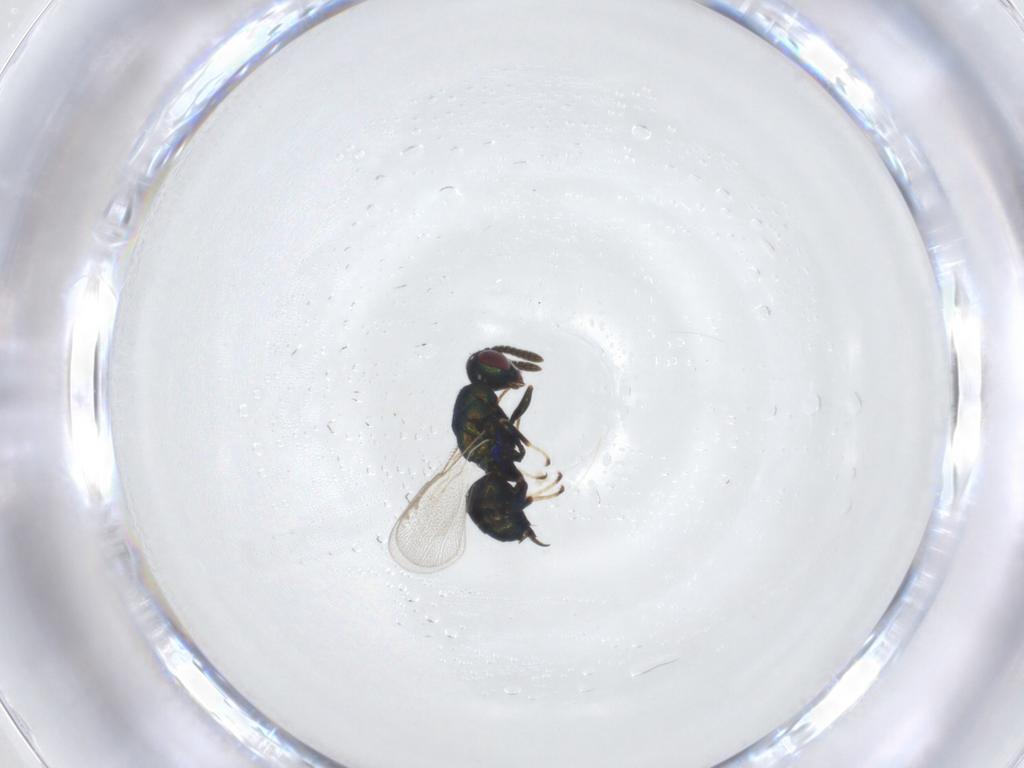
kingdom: Animalia
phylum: Arthropoda
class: Insecta
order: Hymenoptera
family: Torymidae
